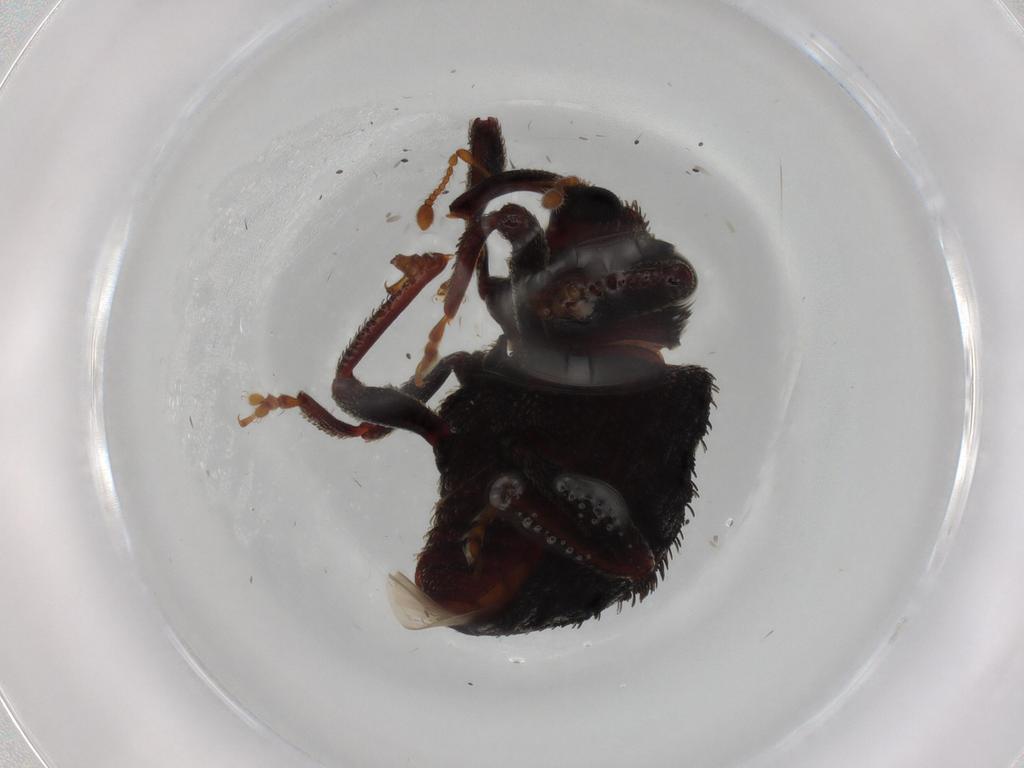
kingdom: Animalia
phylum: Arthropoda
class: Insecta
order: Coleoptera
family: Curculionidae
